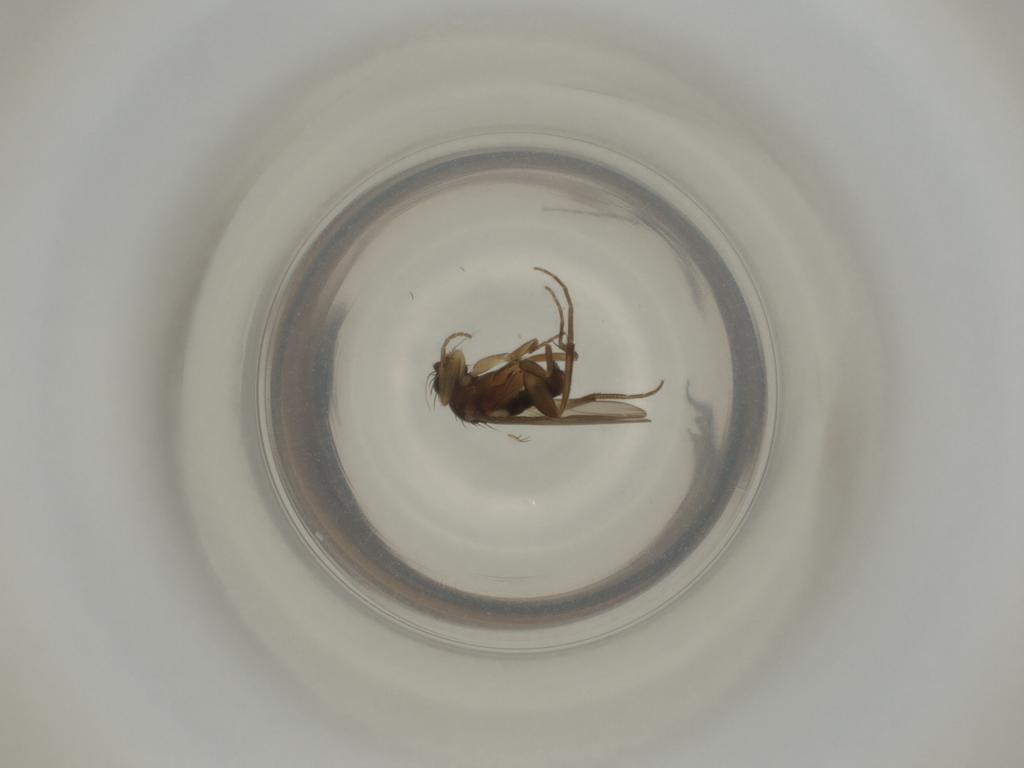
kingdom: Animalia
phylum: Arthropoda
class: Insecta
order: Diptera
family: Phoridae
